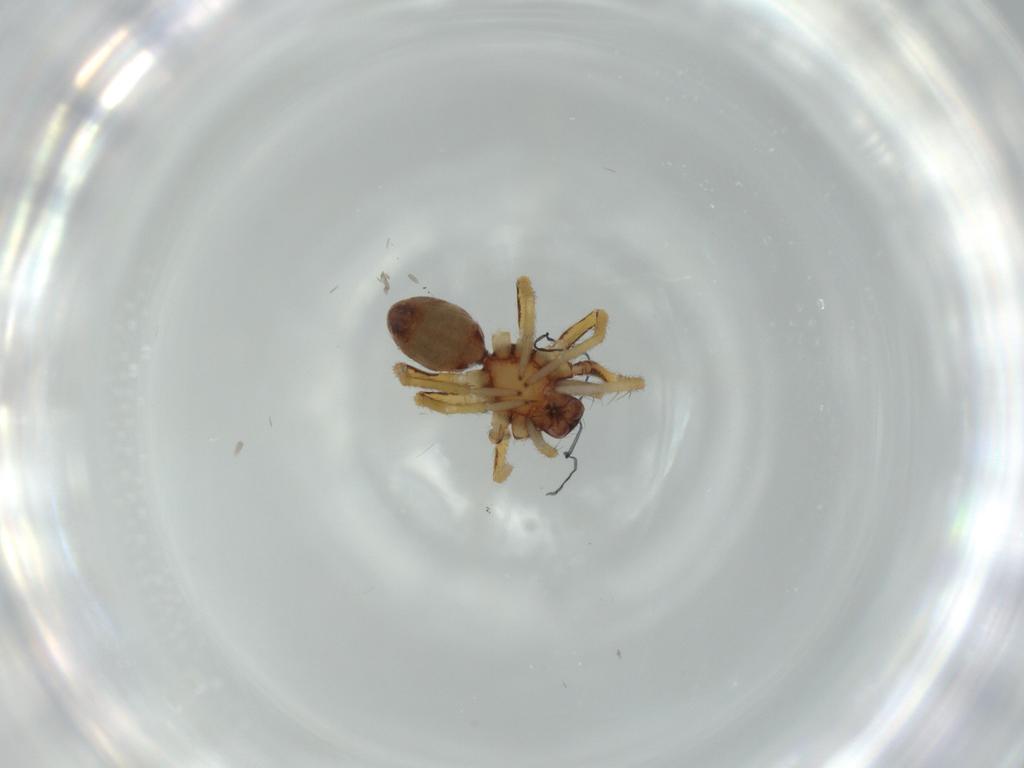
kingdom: Animalia
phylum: Arthropoda
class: Arachnida
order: Araneae
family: Corinnidae
